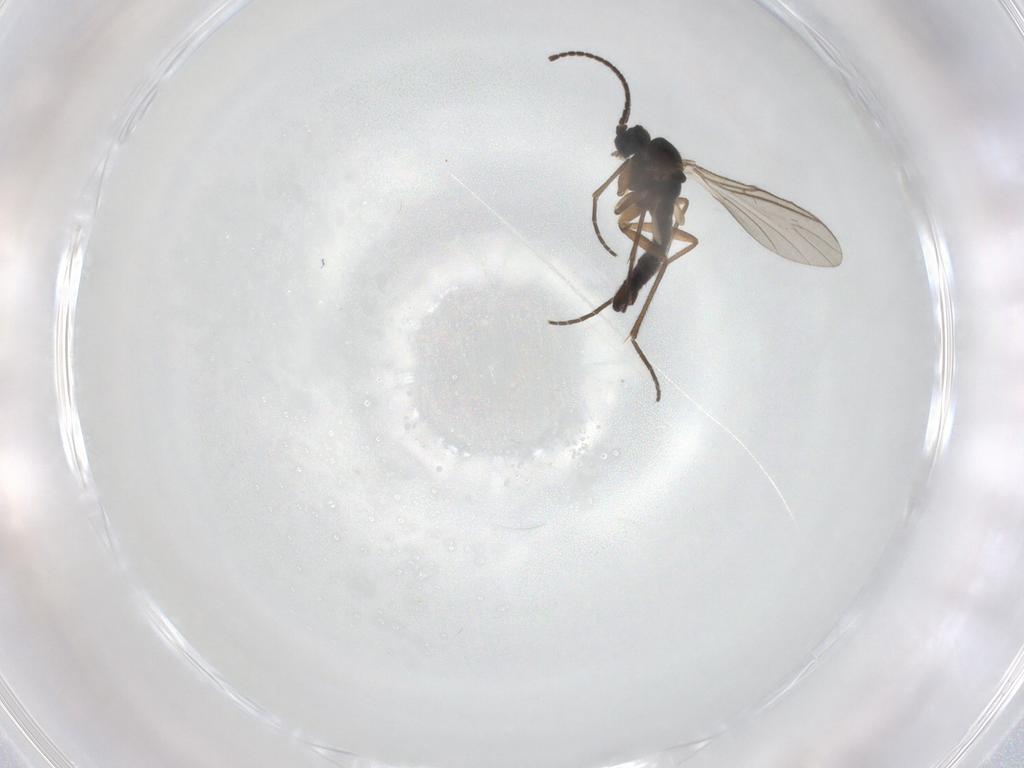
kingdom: Animalia
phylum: Arthropoda
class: Insecta
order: Diptera
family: Sciaridae
